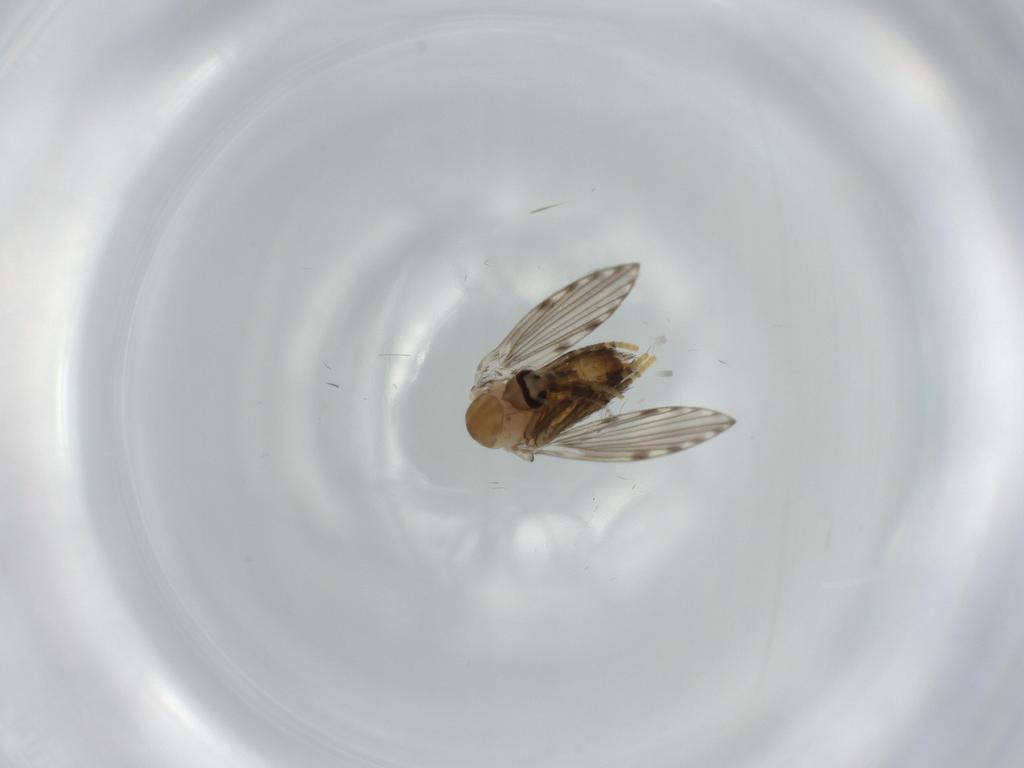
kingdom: Animalia
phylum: Arthropoda
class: Insecta
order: Diptera
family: Psychodidae
